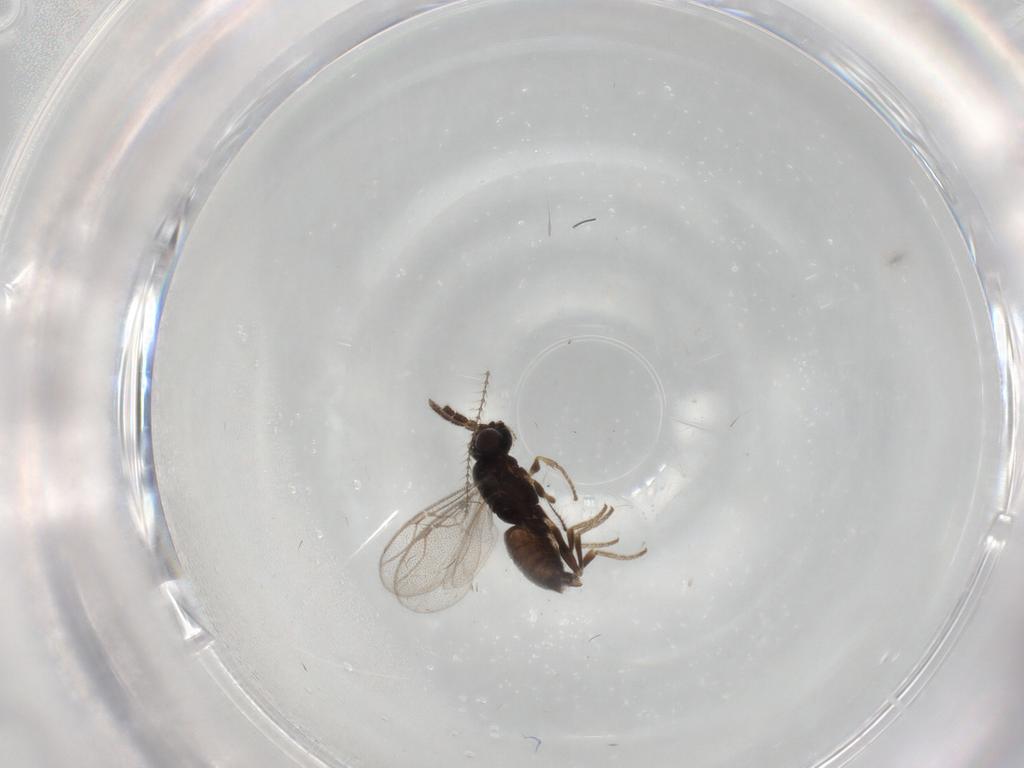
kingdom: Animalia
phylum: Arthropoda
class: Insecta
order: Hymenoptera
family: Dryinidae
